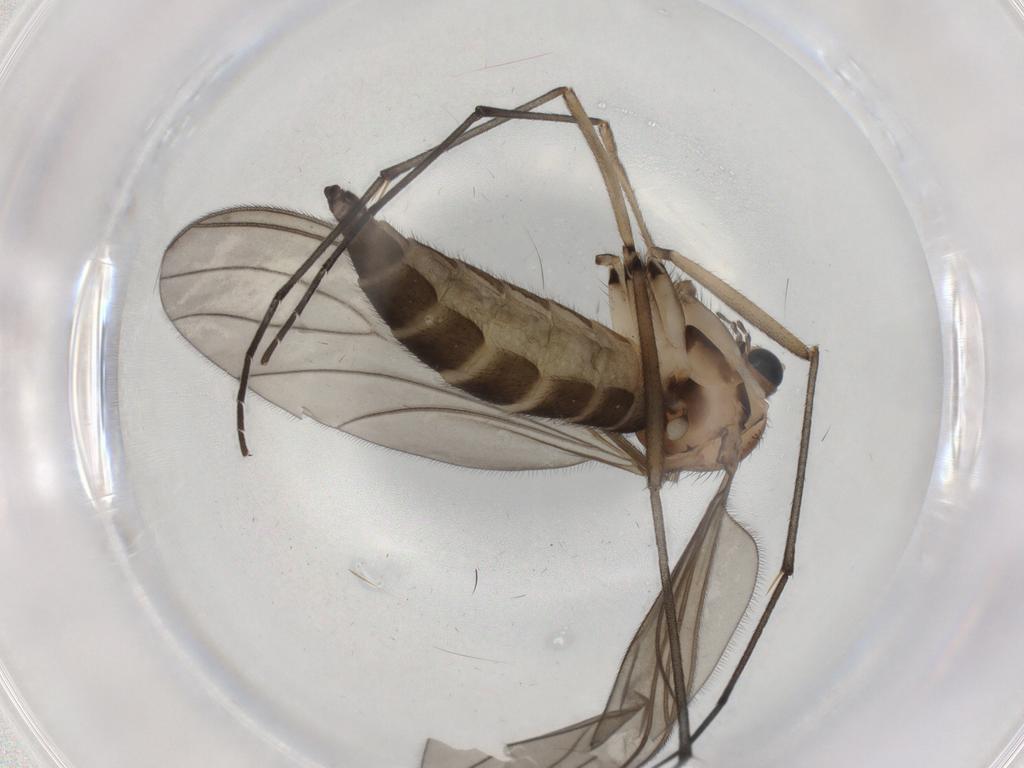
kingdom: Animalia
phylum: Arthropoda
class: Insecta
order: Diptera
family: Sciaridae
